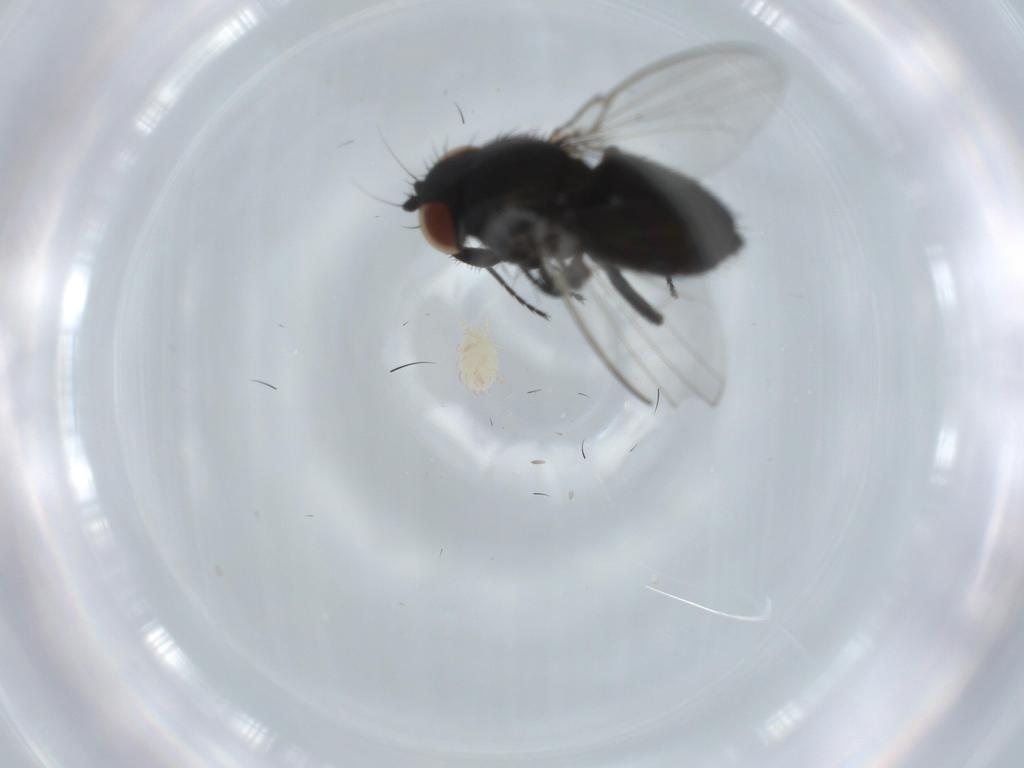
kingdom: Animalia
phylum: Arthropoda
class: Insecta
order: Diptera
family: Milichiidae
